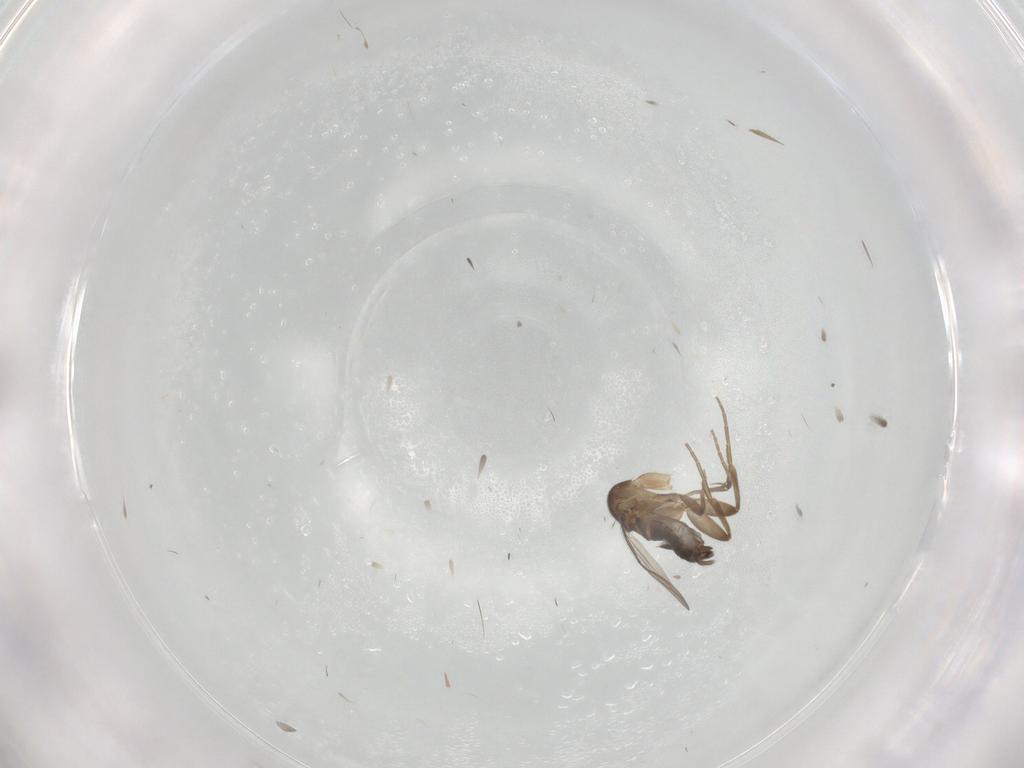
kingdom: Animalia
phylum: Arthropoda
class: Insecta
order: Diptera
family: Phoridae
